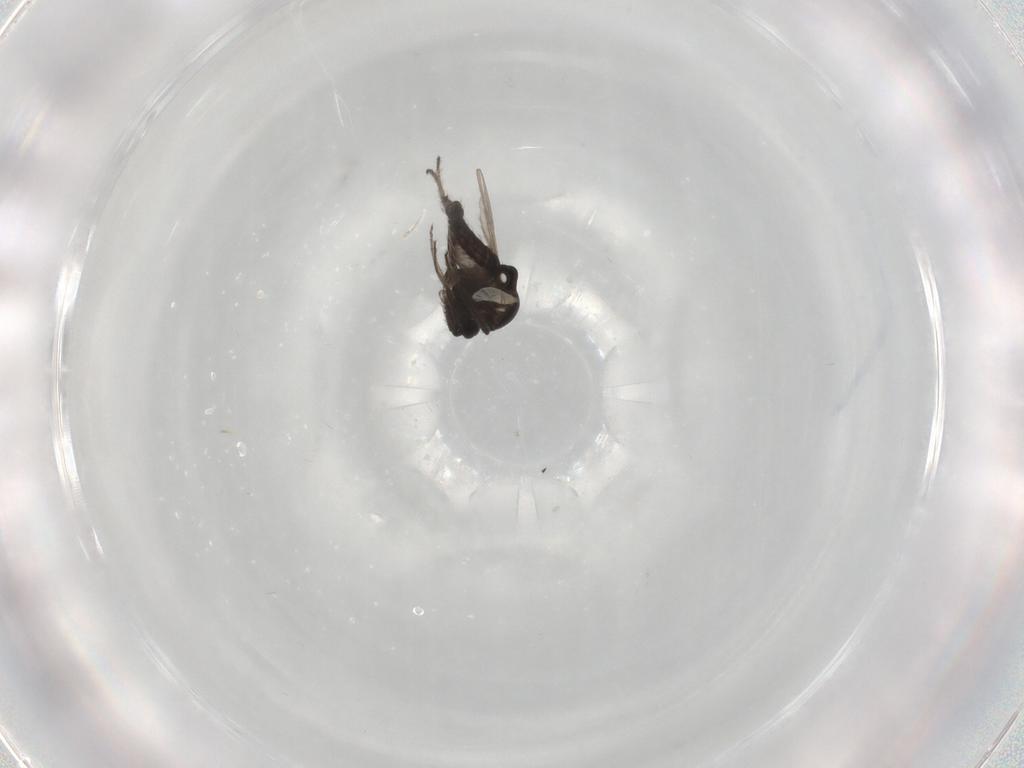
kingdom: Animalia
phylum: Arthropoda
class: Insecta
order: Diptera
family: Ceratopogonidae
